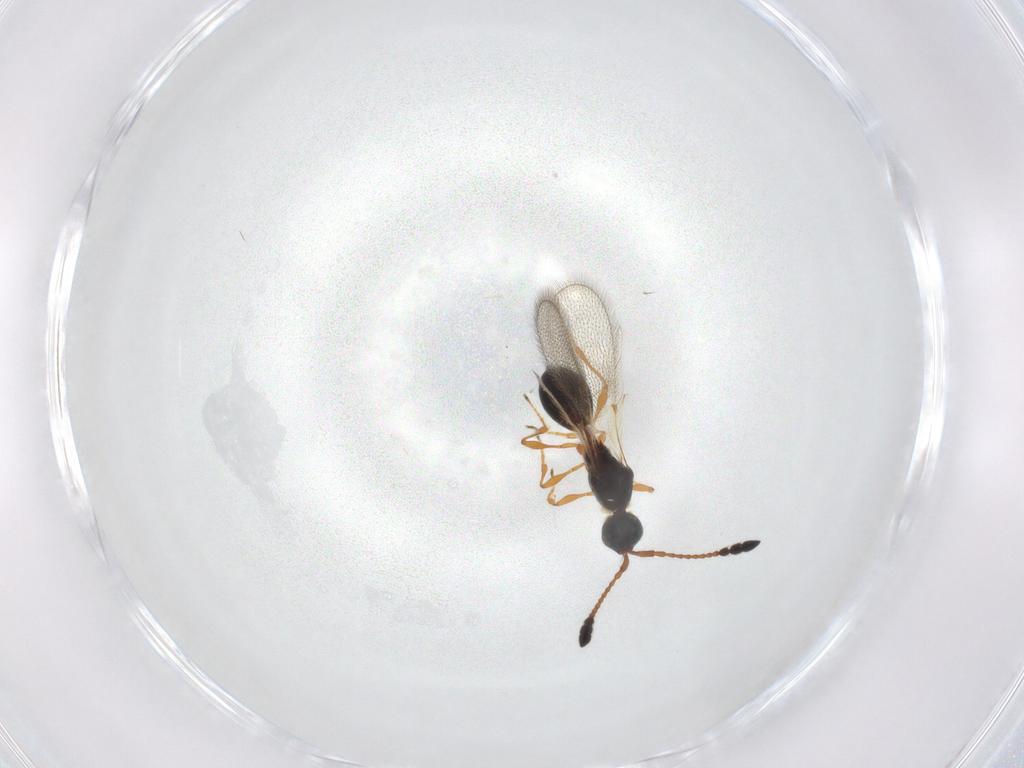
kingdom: Animalia
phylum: Arthropoda
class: Insecta
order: Hymenoptera
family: Diapriidae
